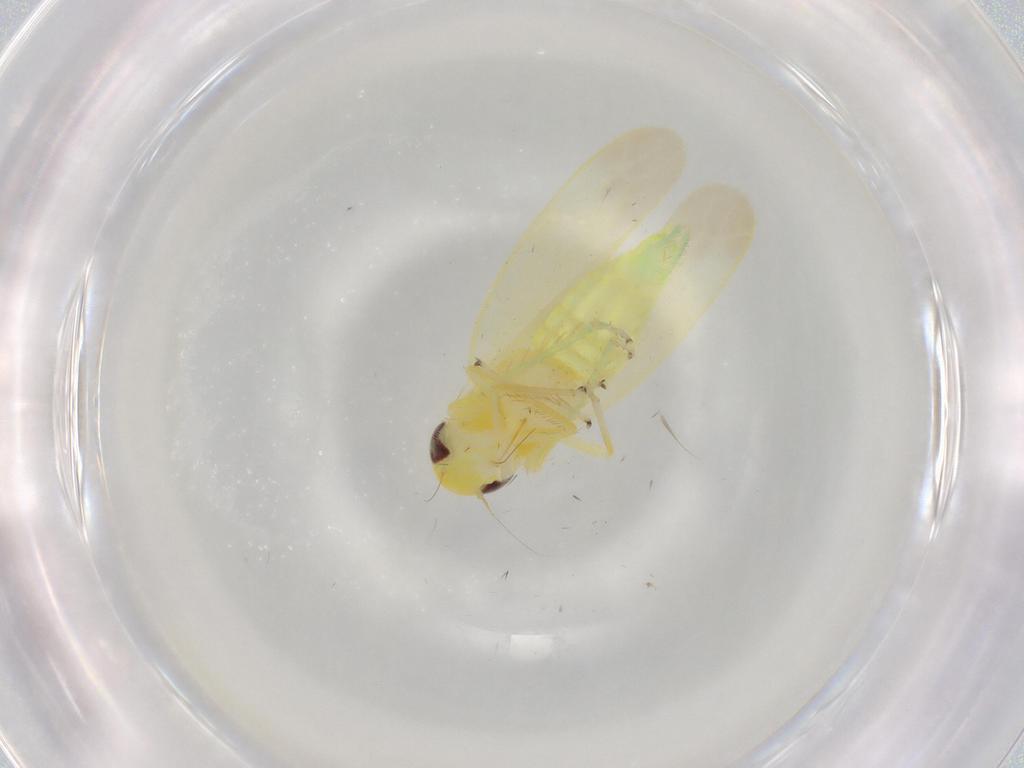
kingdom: Animalia
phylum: Arthropoda
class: Insecta
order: Hemiptera
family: Cicadellidae
